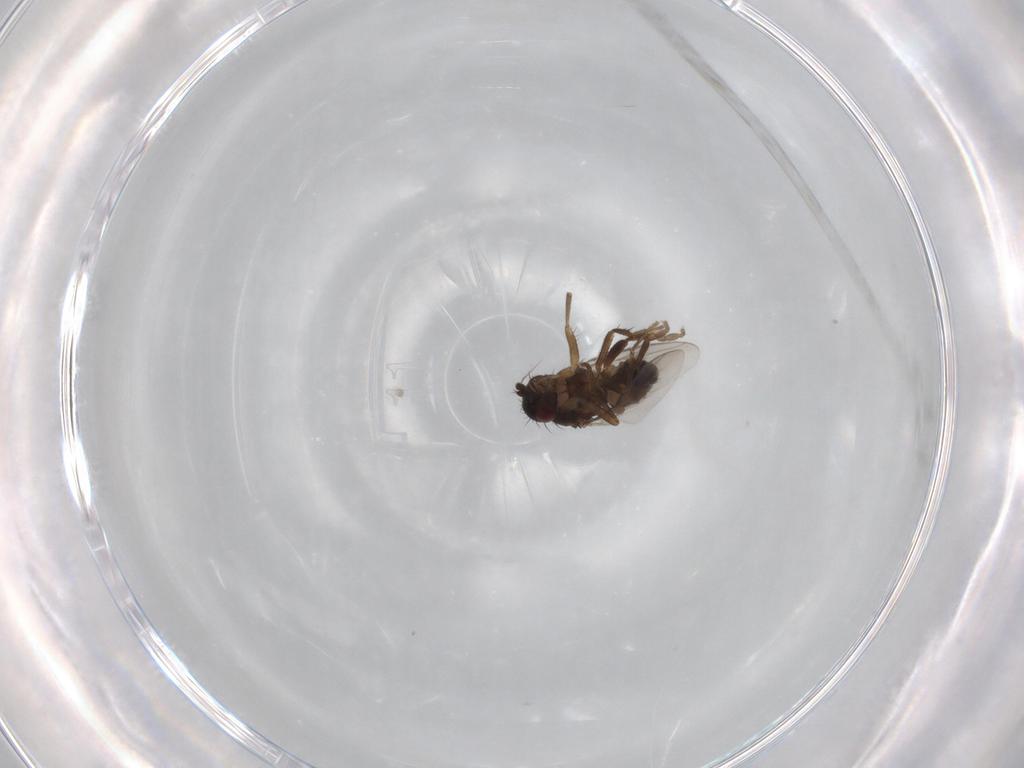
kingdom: Animalia
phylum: Arthropoda
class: Insecta
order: Diptera
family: Sphaeroceridae
